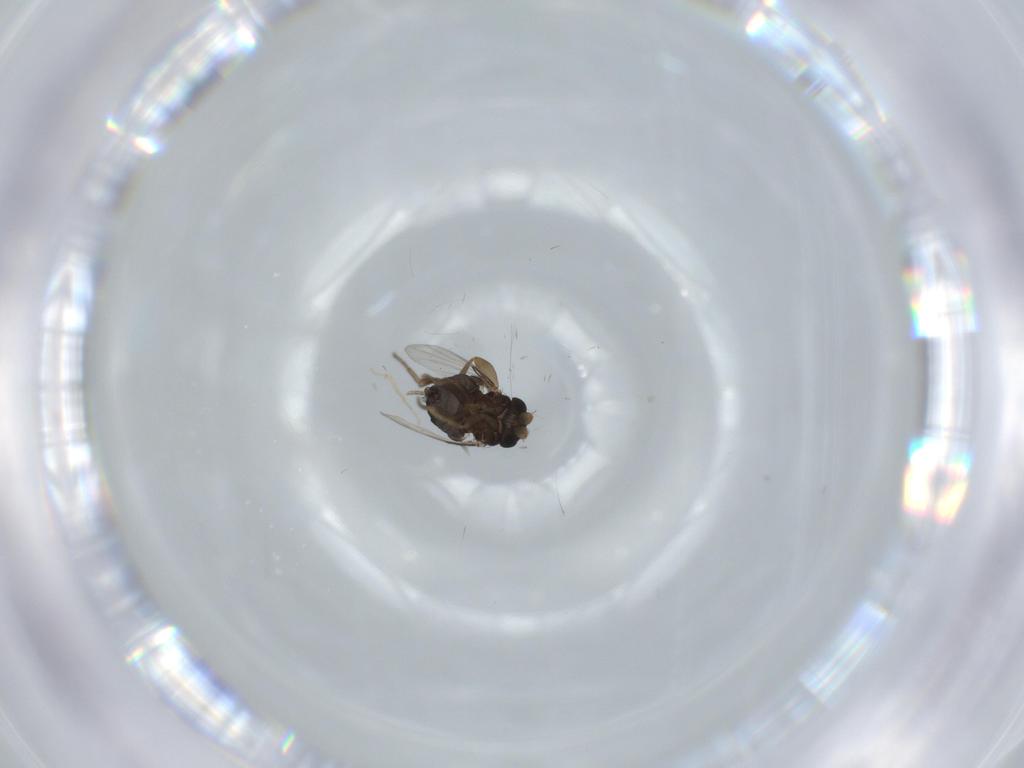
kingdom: Animalia
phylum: Arthropoda
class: Insecta
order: Diptera
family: Phoridae
